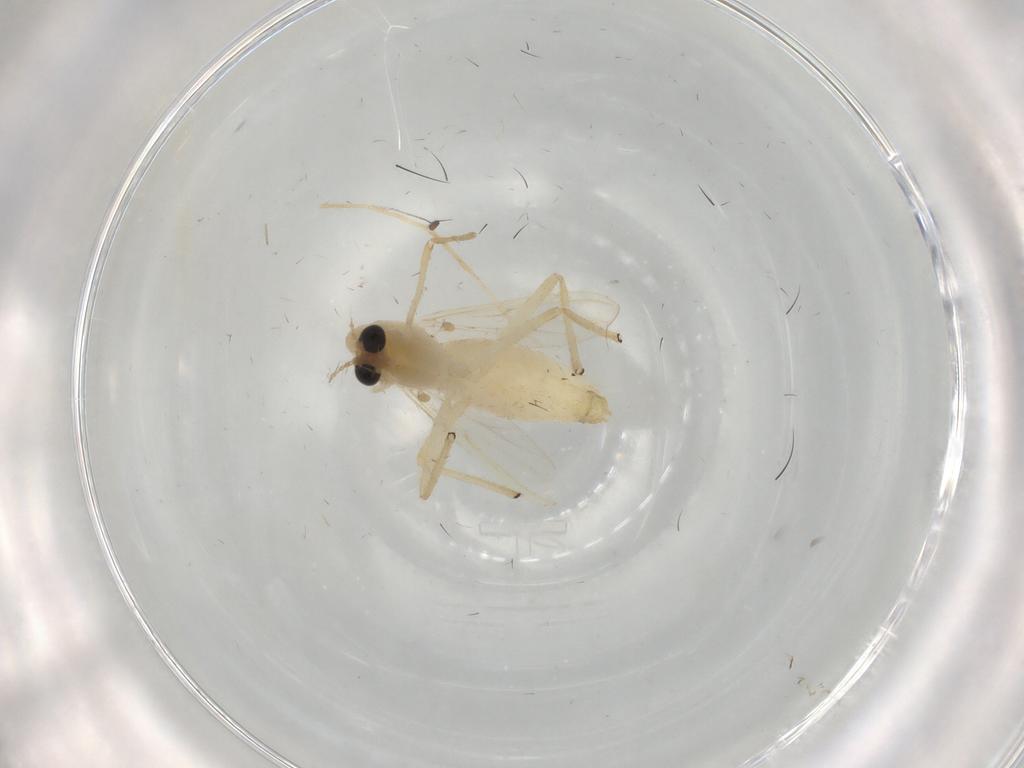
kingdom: Animalia
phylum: Arthropoda
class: Insecta
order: Diptera
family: Chironomidae
